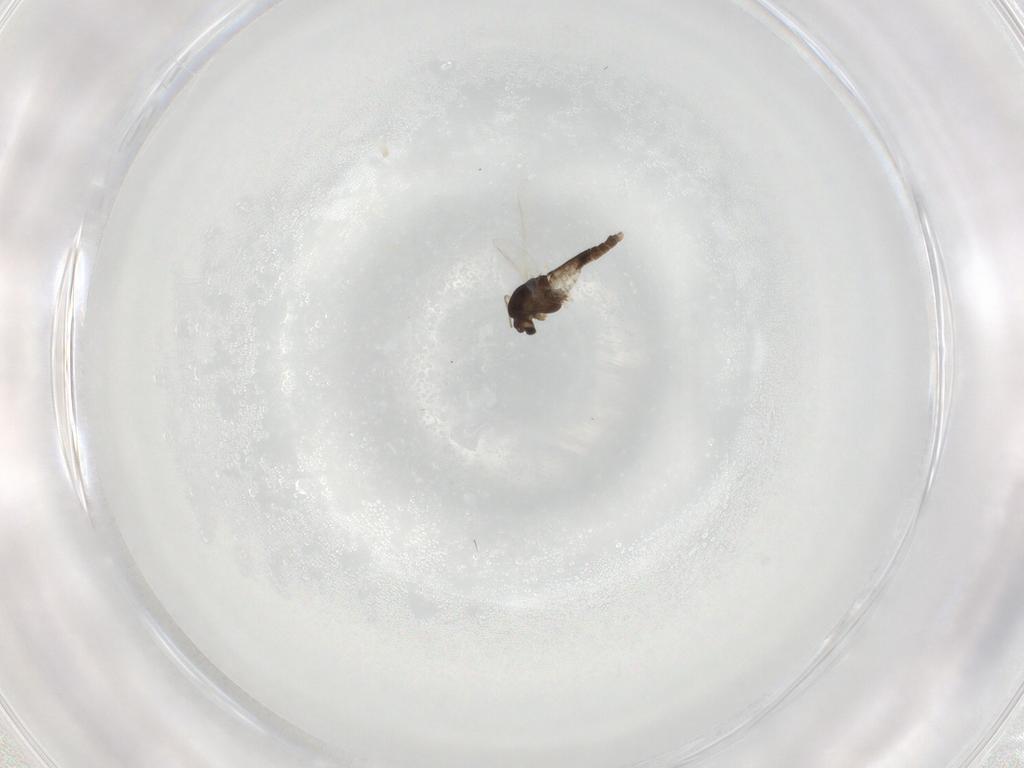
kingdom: Animalia
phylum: Arthropoda
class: Insecta
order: Diptera
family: Chironomidae
